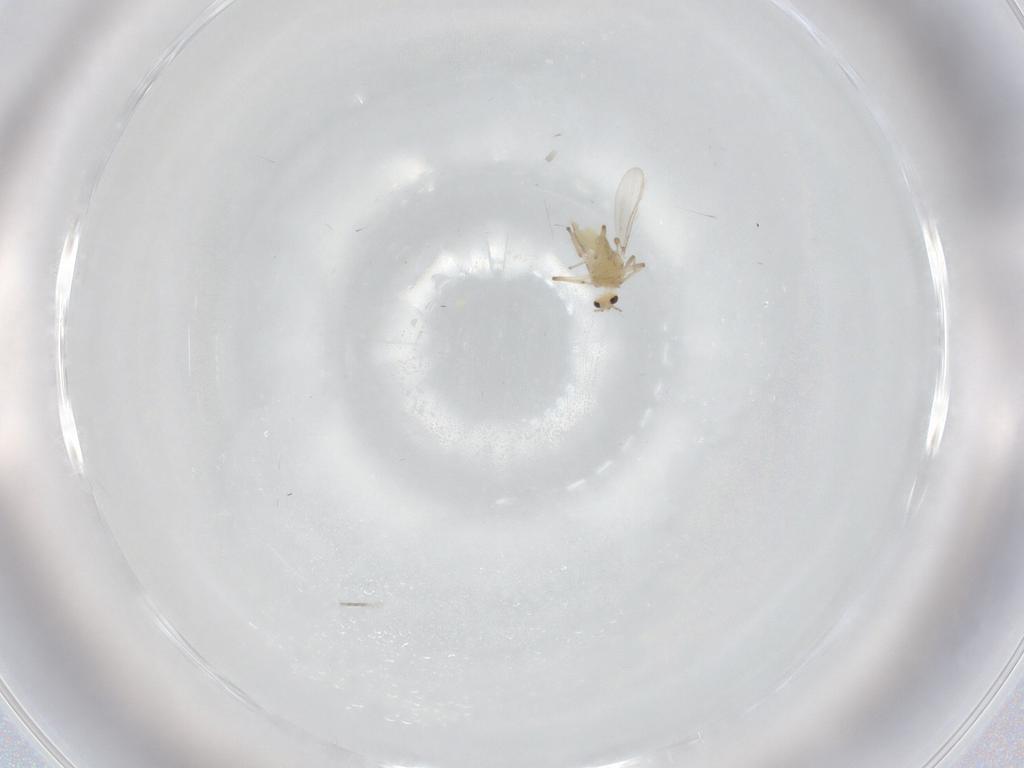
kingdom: Animalia
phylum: Arthropoda
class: Insecta
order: Diptera
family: Chironomidae
